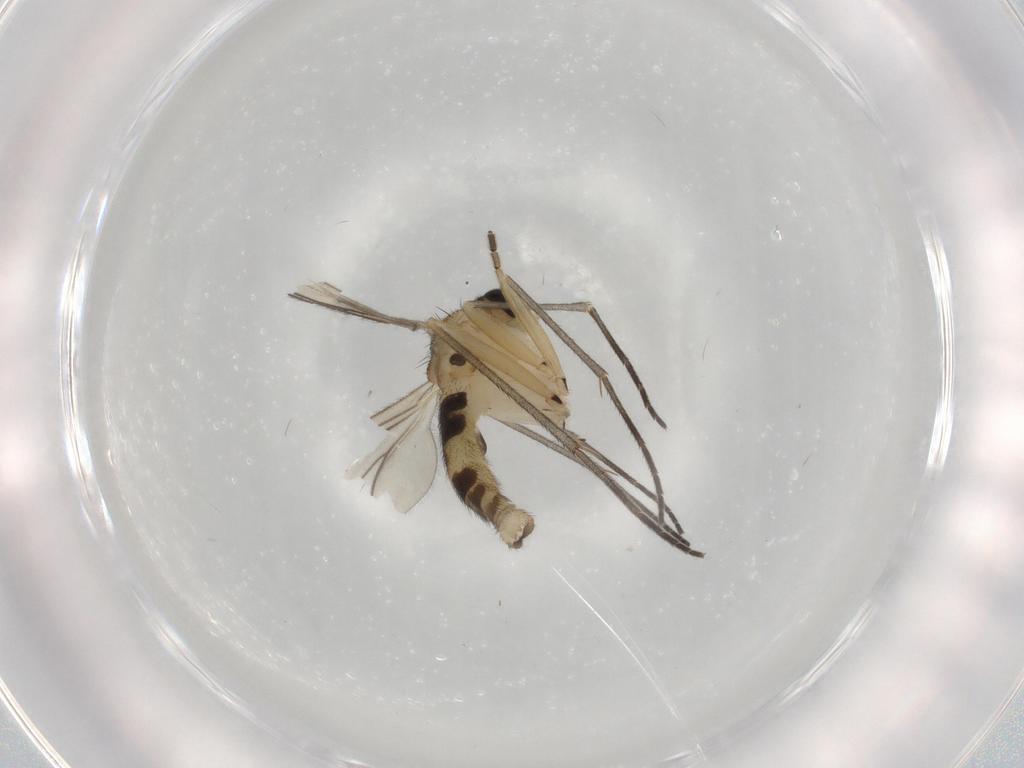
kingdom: Animalia
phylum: Arthropoda
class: Insecta
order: Diptera
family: Sciaridae
